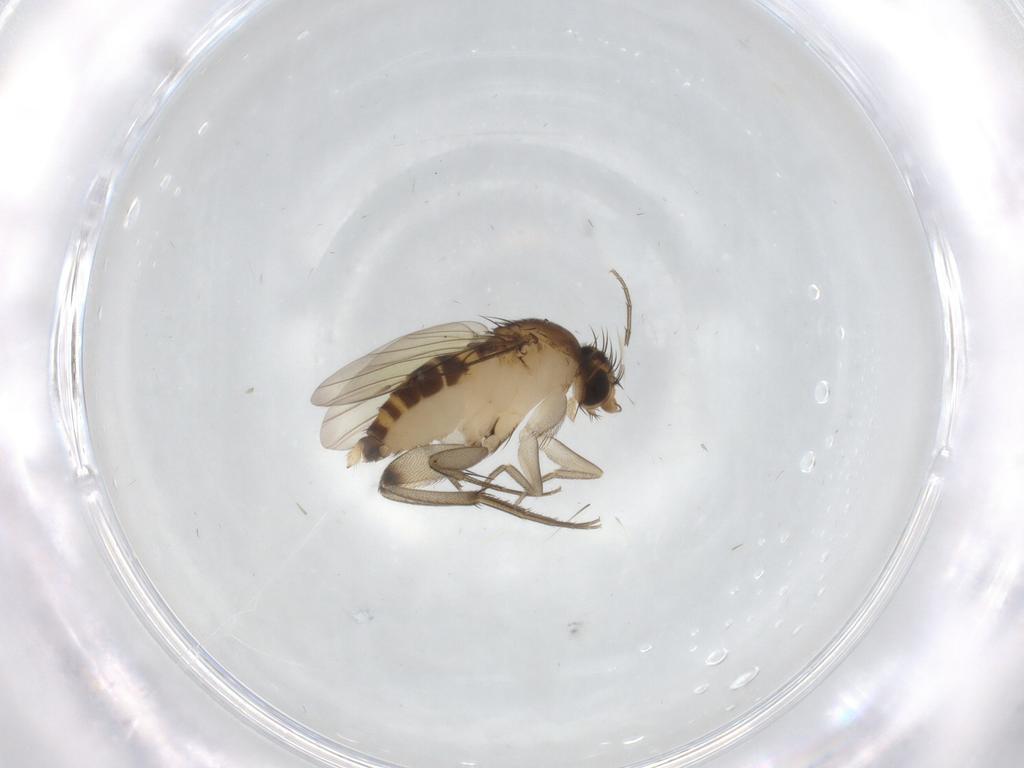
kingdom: Animalia
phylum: Arthropoda
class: Insecta
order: Diptera
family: Phoridae
